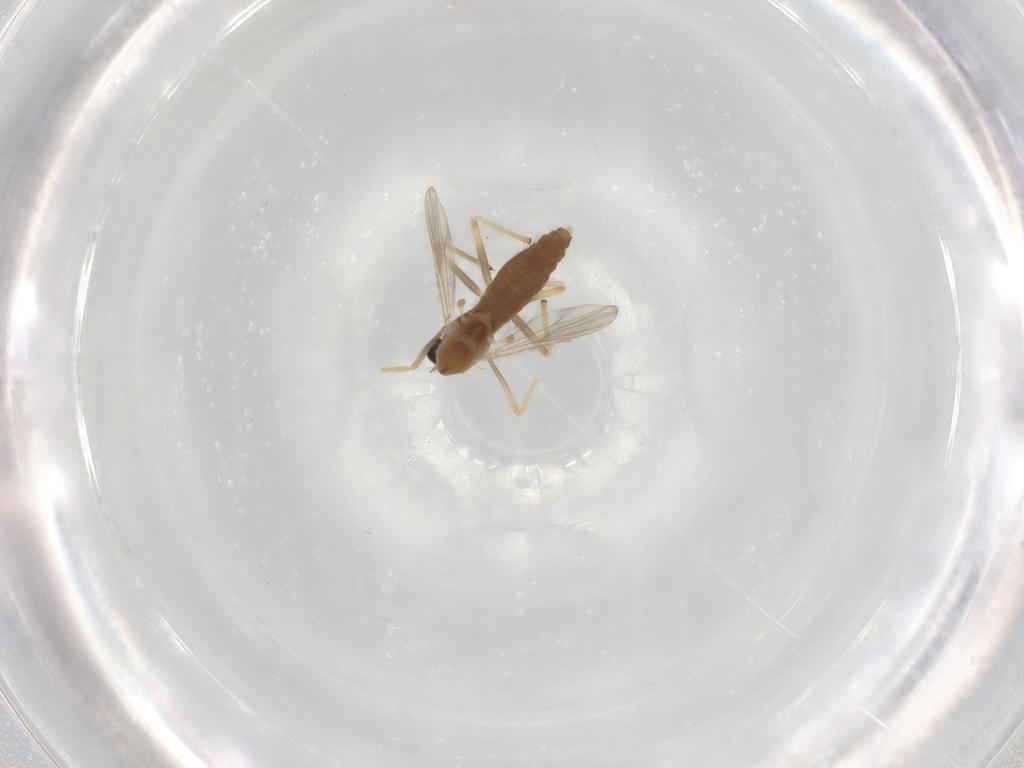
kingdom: Animalia
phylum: Arthropoda
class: Insecta
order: Diptera
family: Chironomidae
